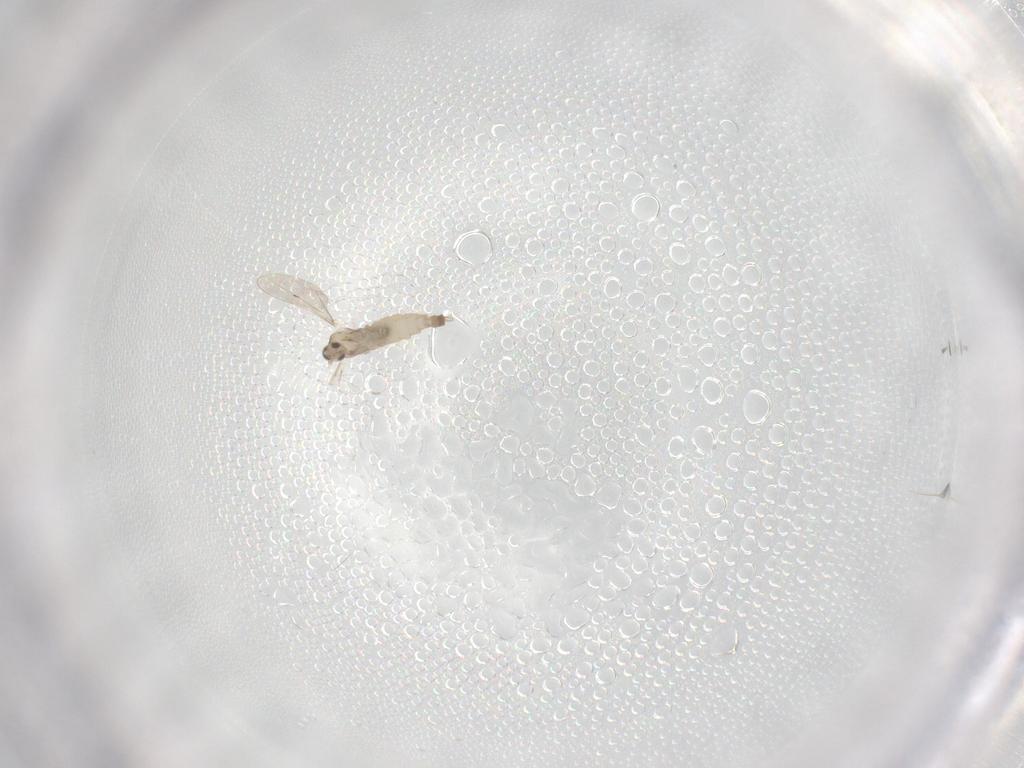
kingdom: Animalia
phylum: Arthropoda
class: Insecta
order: Diptera
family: Cecidomyiidae
